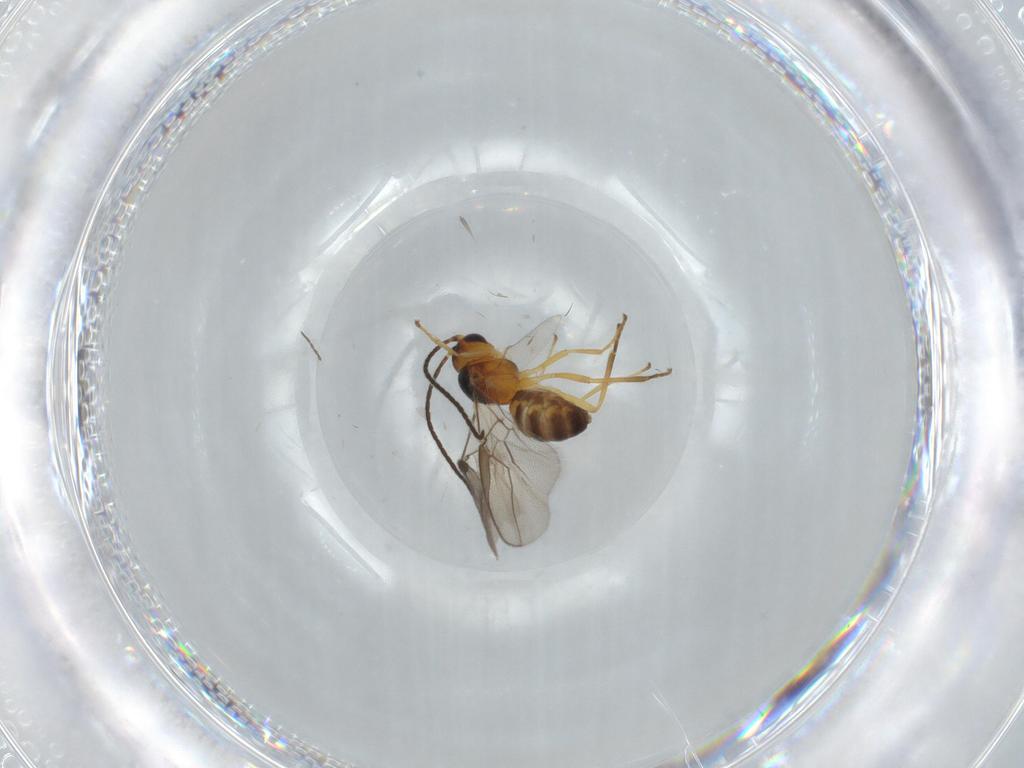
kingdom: Animalia
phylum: Arthropoda
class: Insecta
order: Hymenoptera
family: Braconidae
